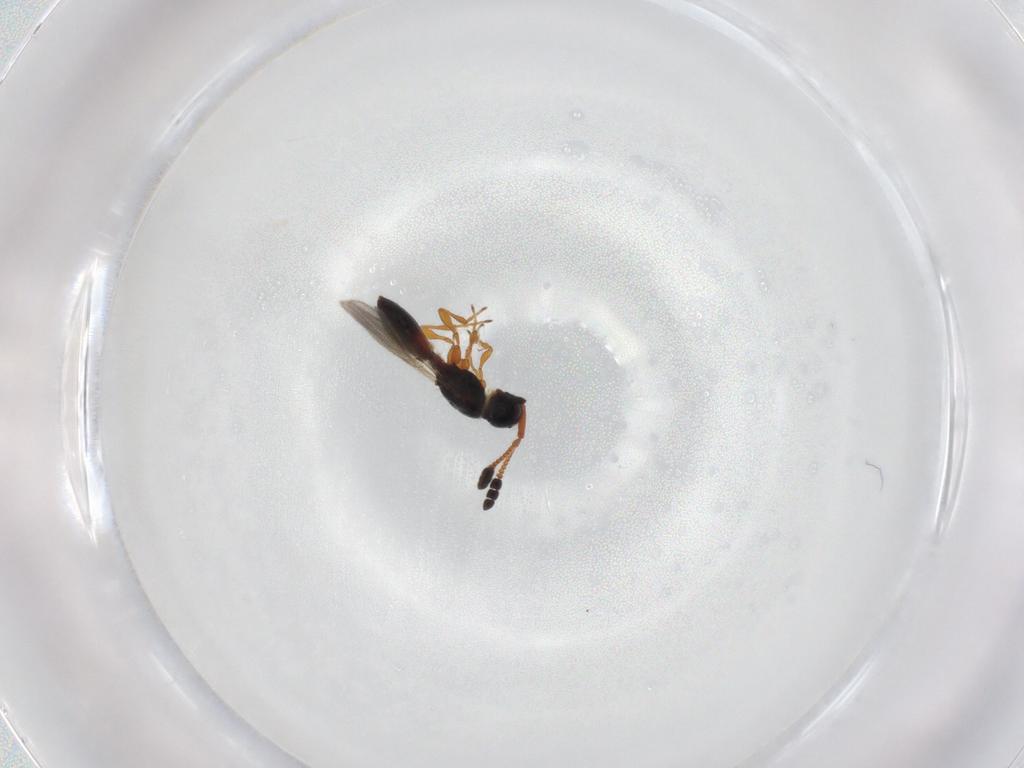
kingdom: Animalia
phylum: Arthropoda
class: Insecta
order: Hymenoptera
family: Diapriidae
